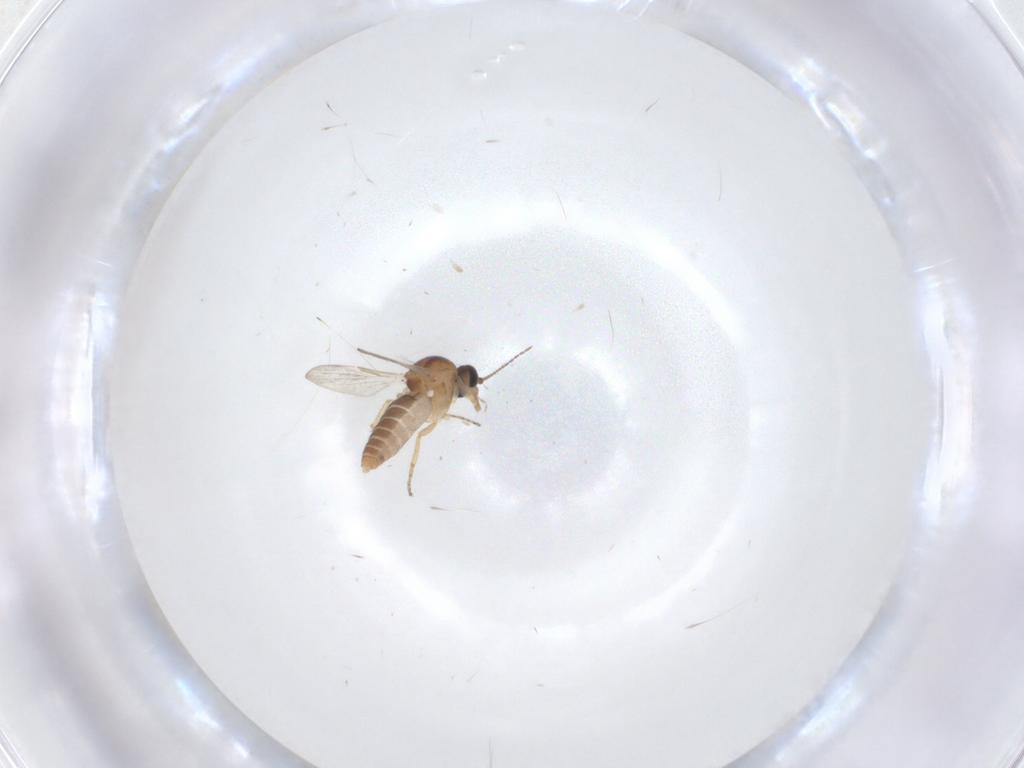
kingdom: Animalia
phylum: Arthropoda
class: Insecta
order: Diptera
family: Ceratopogonidae
